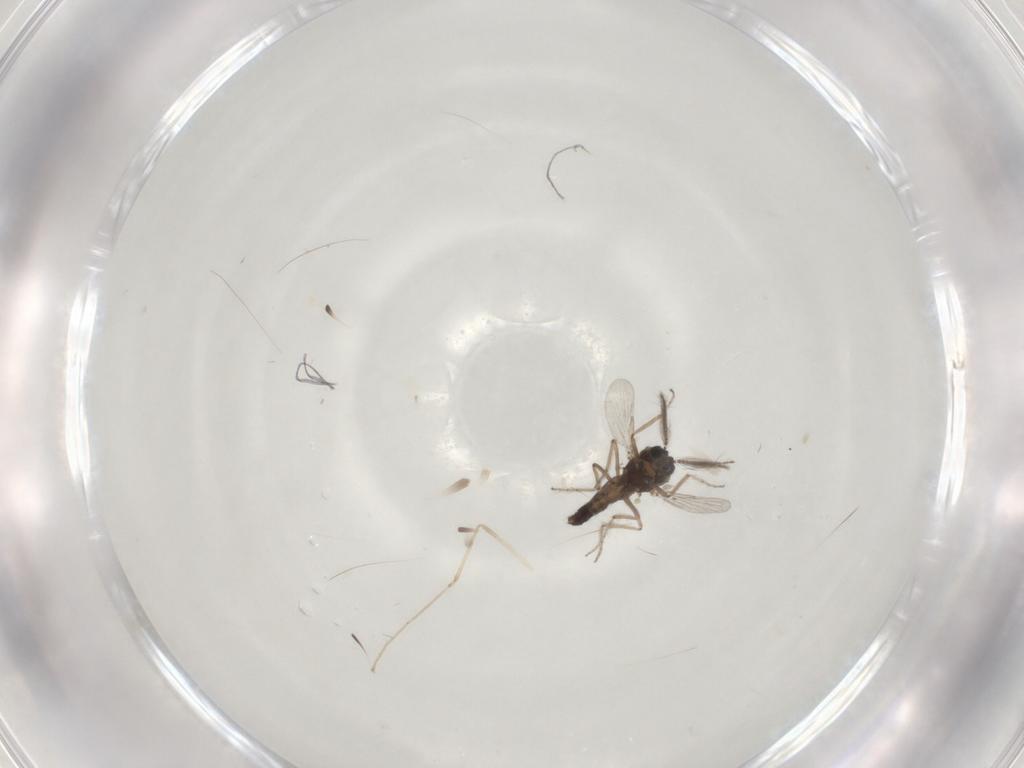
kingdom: Animalia
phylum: Arthropoda
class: Insecta
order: Diptera
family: Ceratopogonidae
